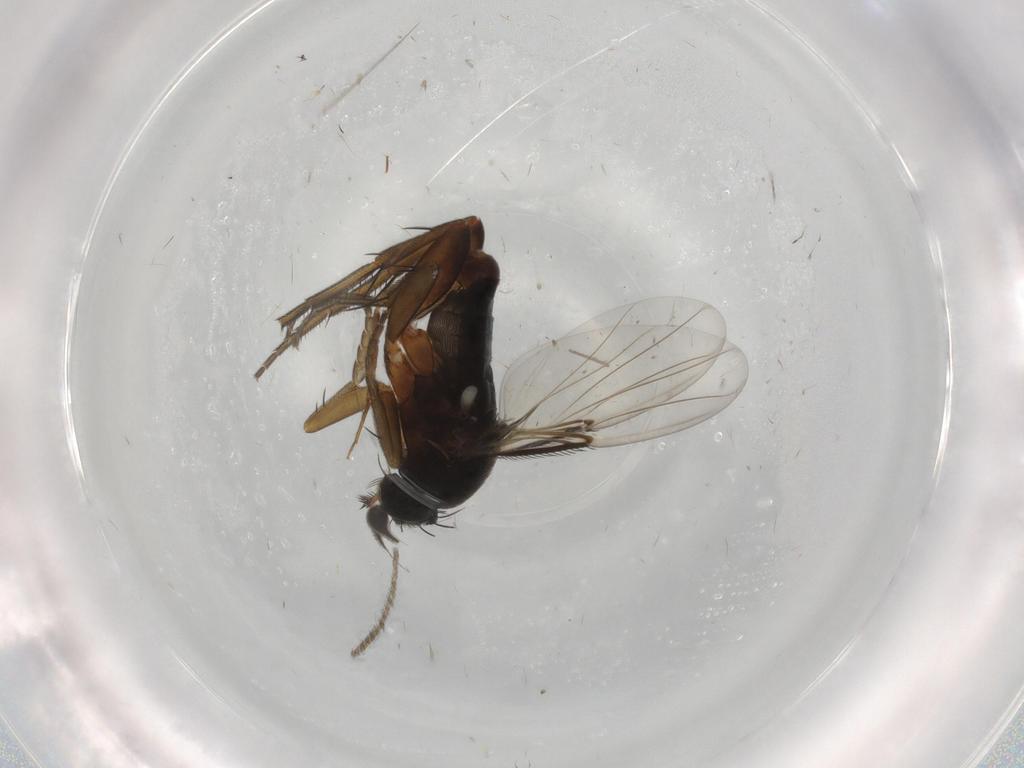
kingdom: Animalia
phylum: Arthropoda
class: Insecta
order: Diptera
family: Phoridae
